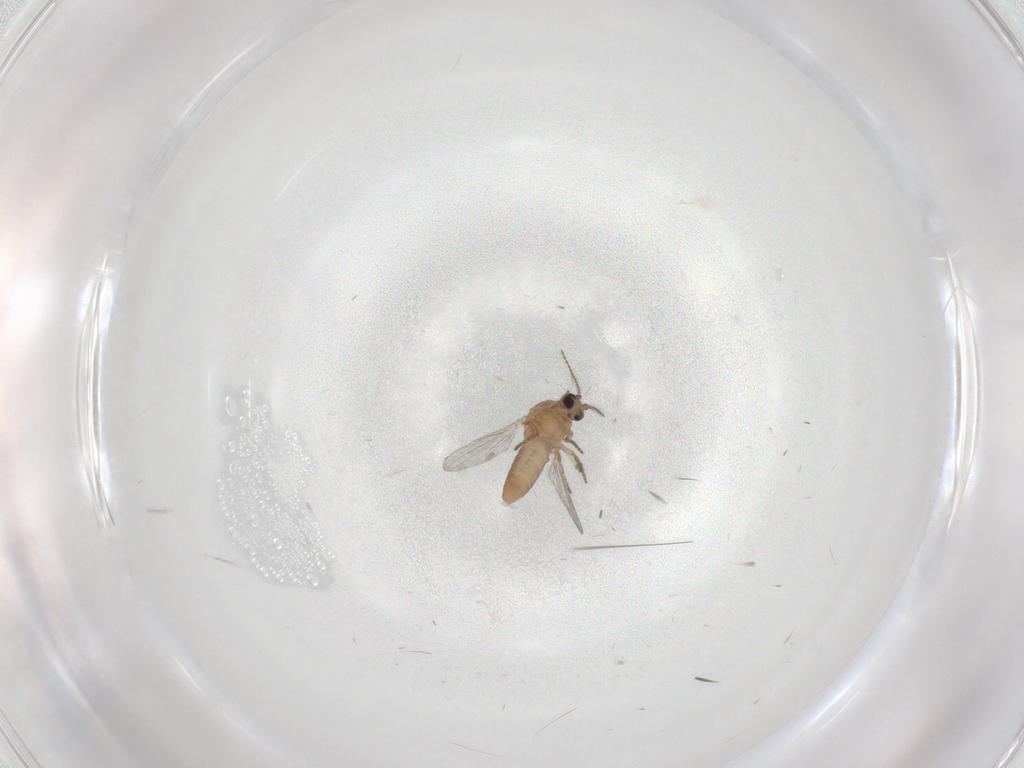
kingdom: Animalia
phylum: Arthropoda
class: Insecta
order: Diptera
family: Ceratopogonidae
